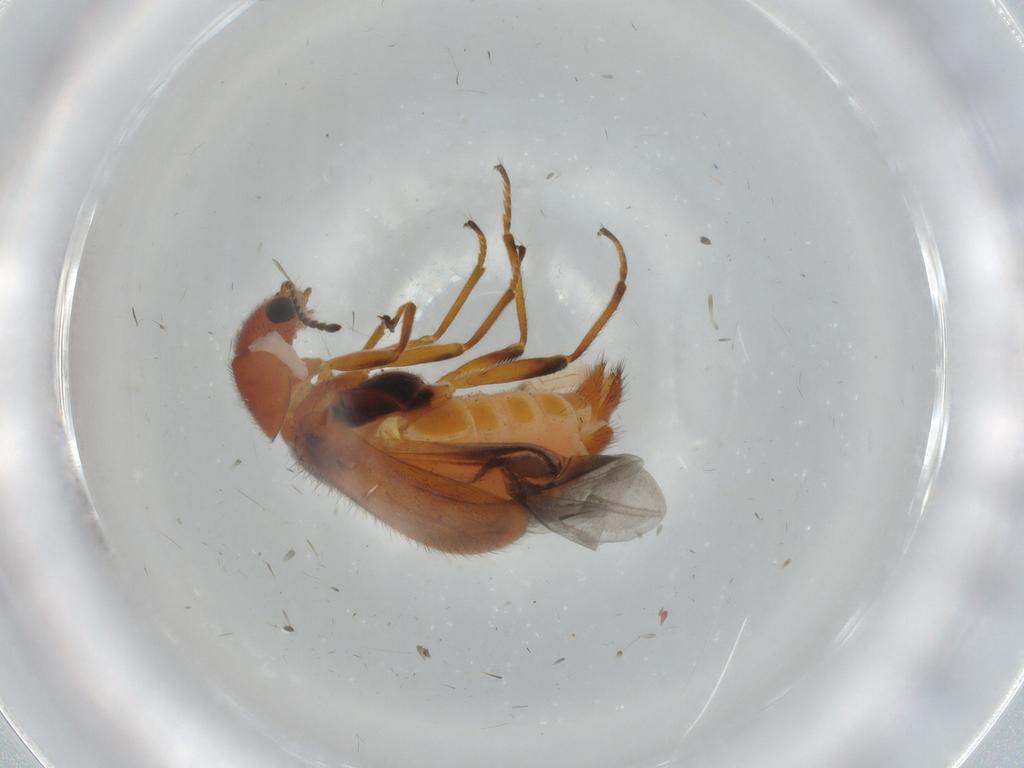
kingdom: Animalia
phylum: Arthropoda
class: Insecta
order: Coleoptera
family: Melyridae
